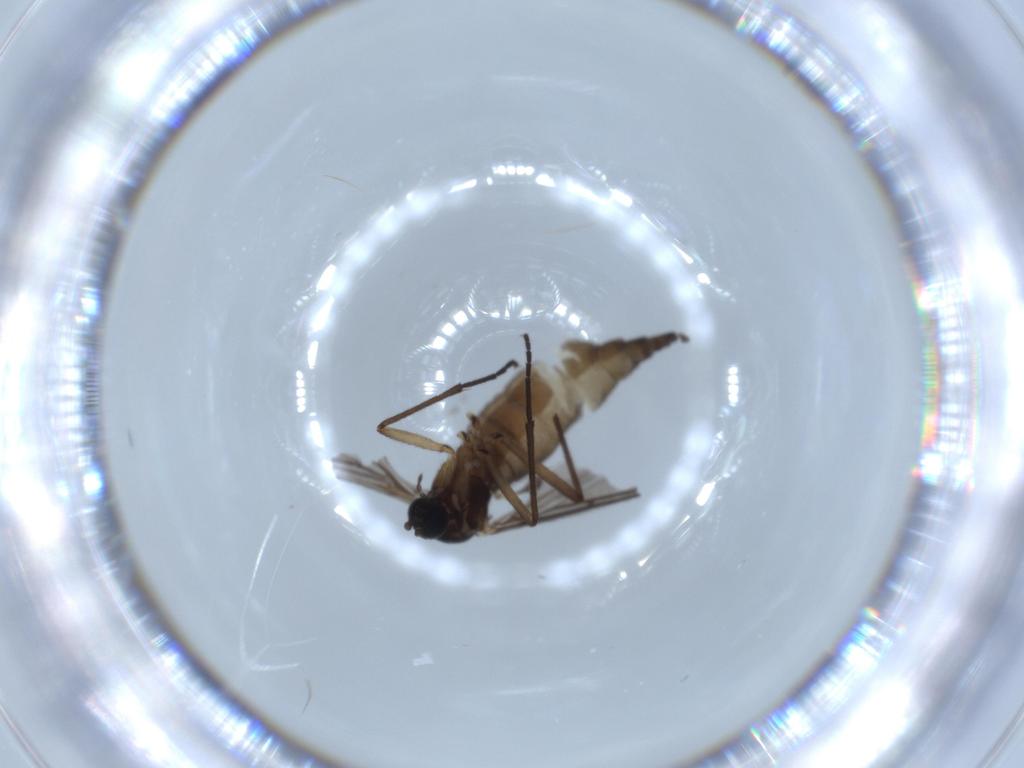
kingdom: Animalia
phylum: Arthropoda
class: Insecta
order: Diptera
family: Sciaridae
